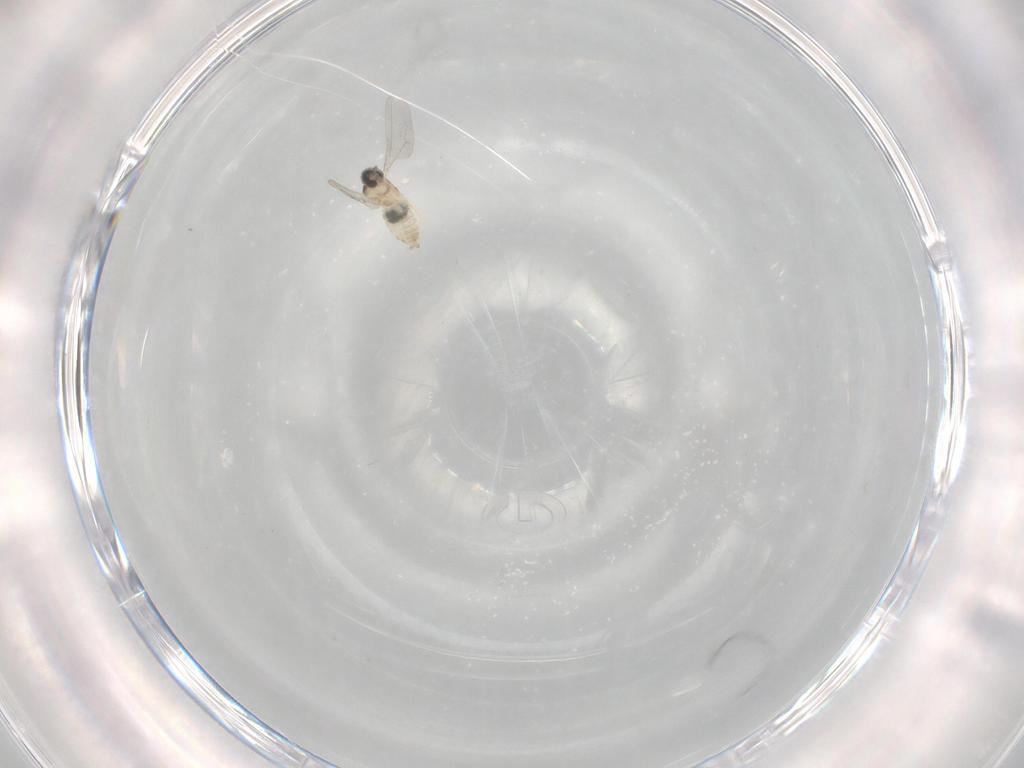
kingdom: Animalia
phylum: Arthropoda
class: Insecta
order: Diptera
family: Cecidomyiidae
